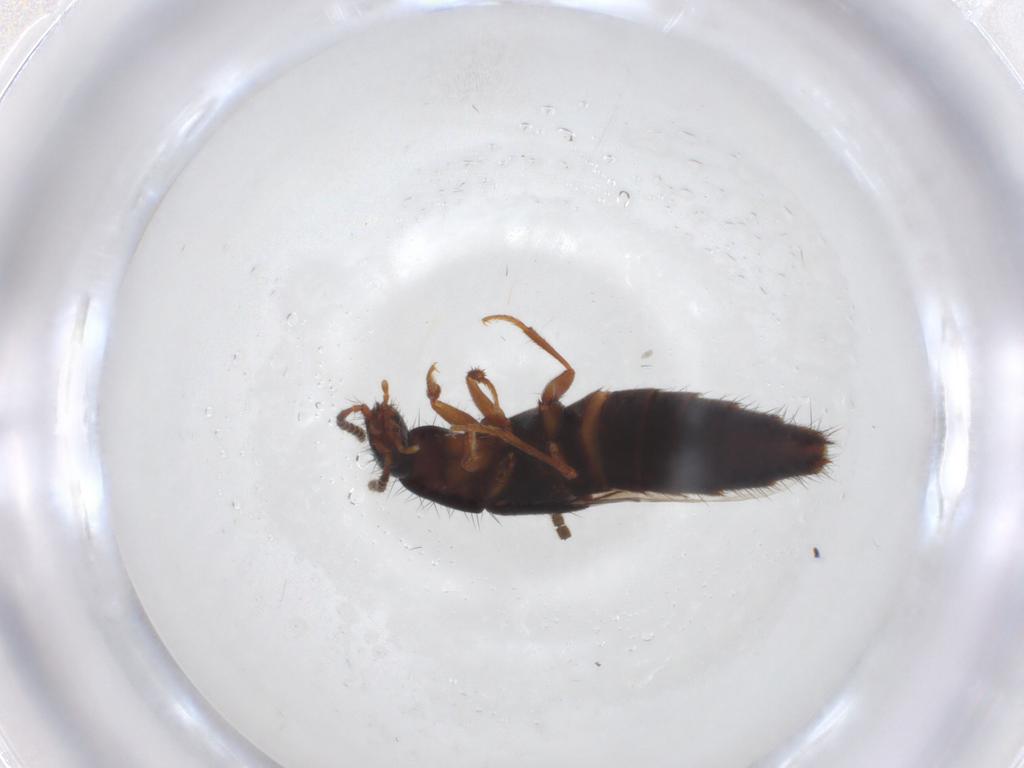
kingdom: Animalia
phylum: Arthropoda
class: Insecta
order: Coleoptera
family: Staphylinidae
